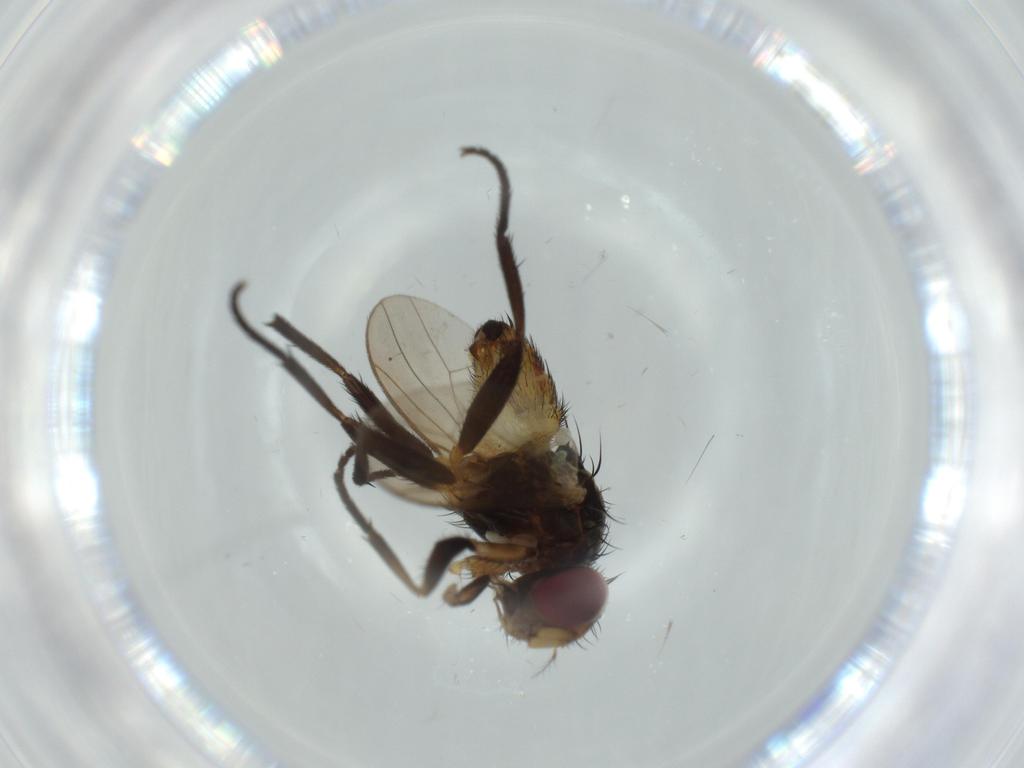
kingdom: Animalia
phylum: Arthropoda
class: Insecta
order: Diptera
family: Anthomyiidae
